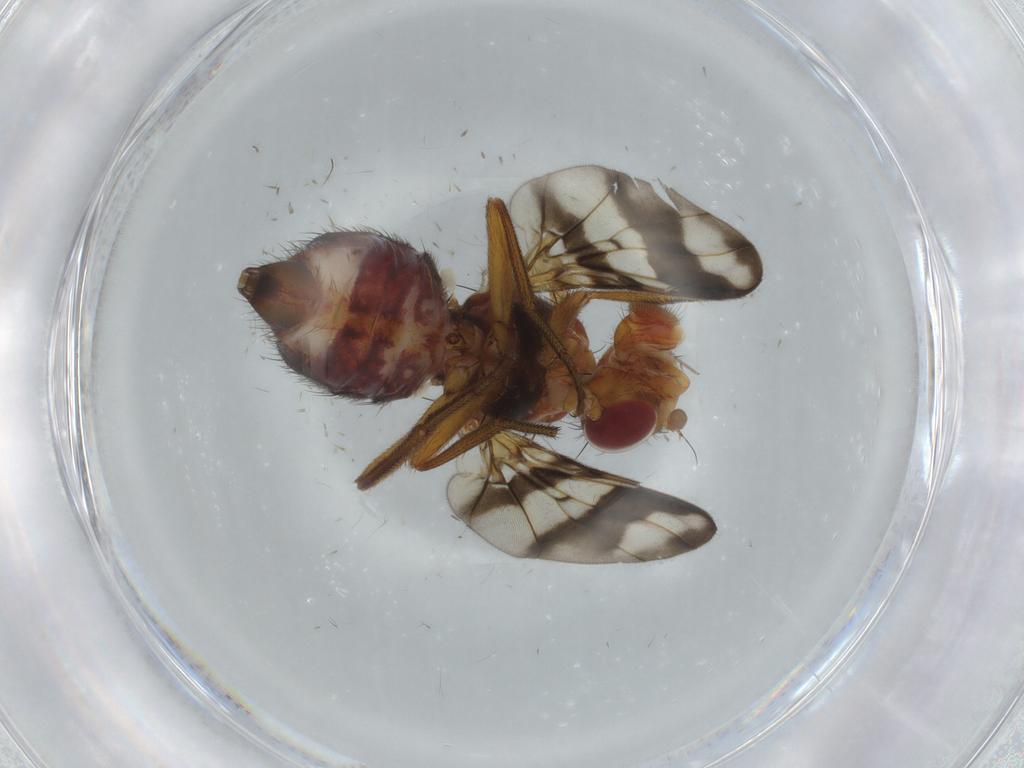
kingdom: Animalia
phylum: Arthropoda
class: Insecta
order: Diptera
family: Richardiidae
